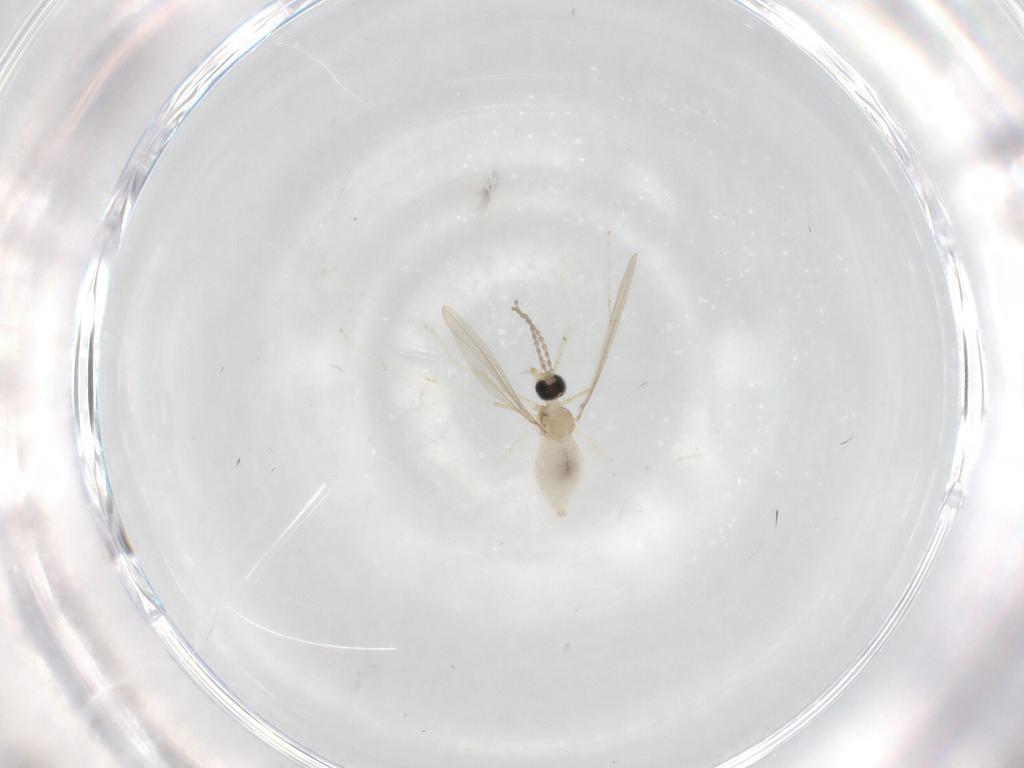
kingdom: Animalia
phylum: Arthropoda
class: Insecta
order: Diptera
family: Cecidomyiidae
